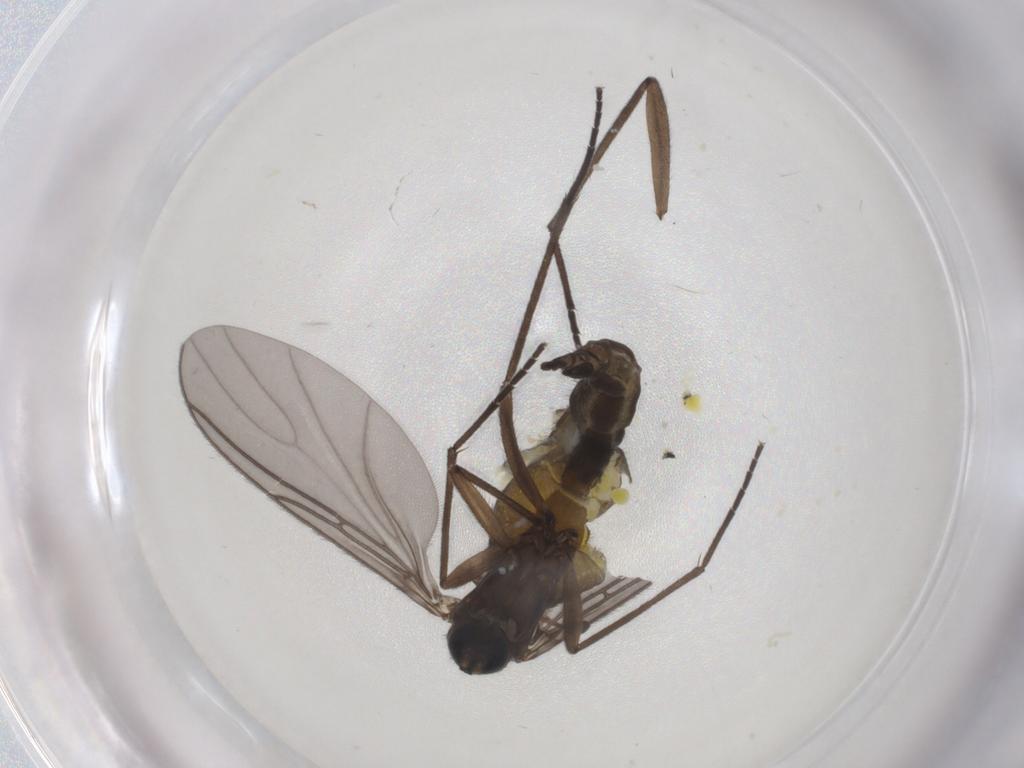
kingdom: Animalia
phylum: Arthropoda
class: Insecta
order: Diptera
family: Sciaridae
